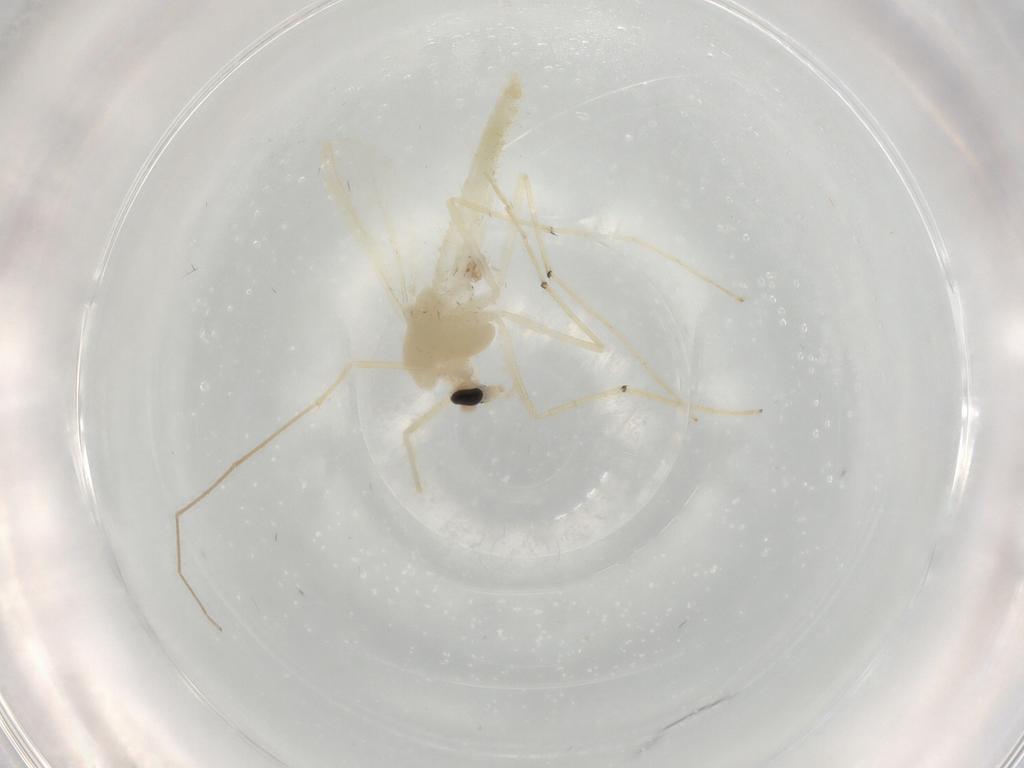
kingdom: Animalia
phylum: Arthropoda
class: Insecta
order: Diptera
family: Chironomidae
